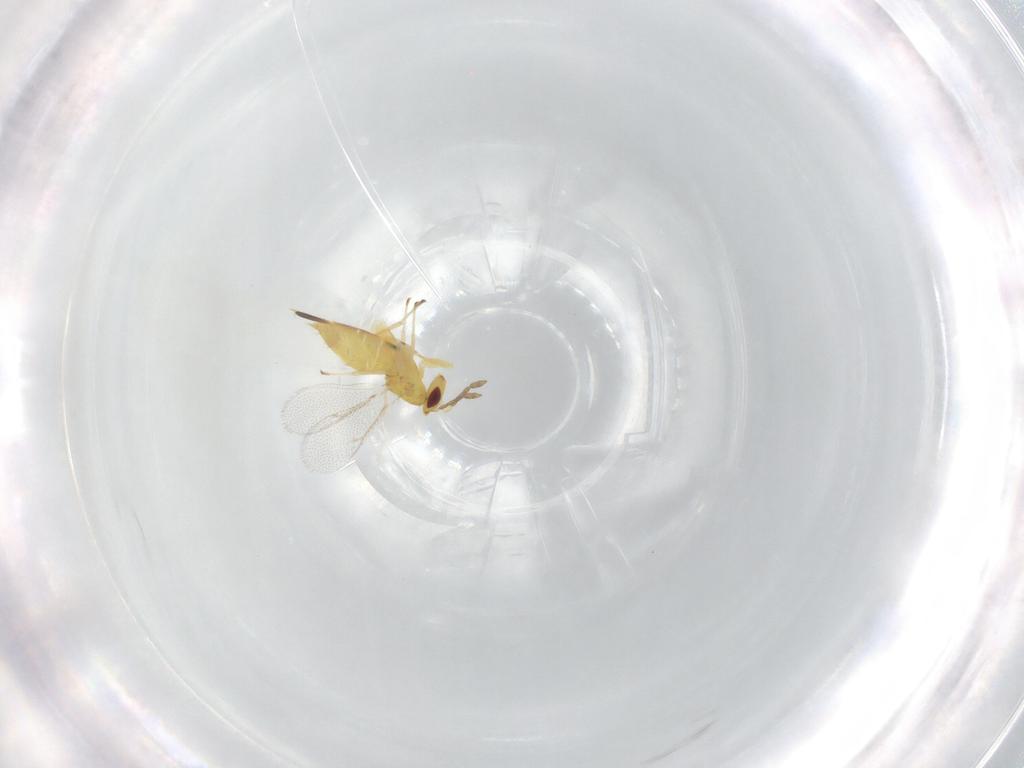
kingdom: Animalia
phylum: Arthropoda
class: Insecta
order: Hymenoptera
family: Eulophidae
